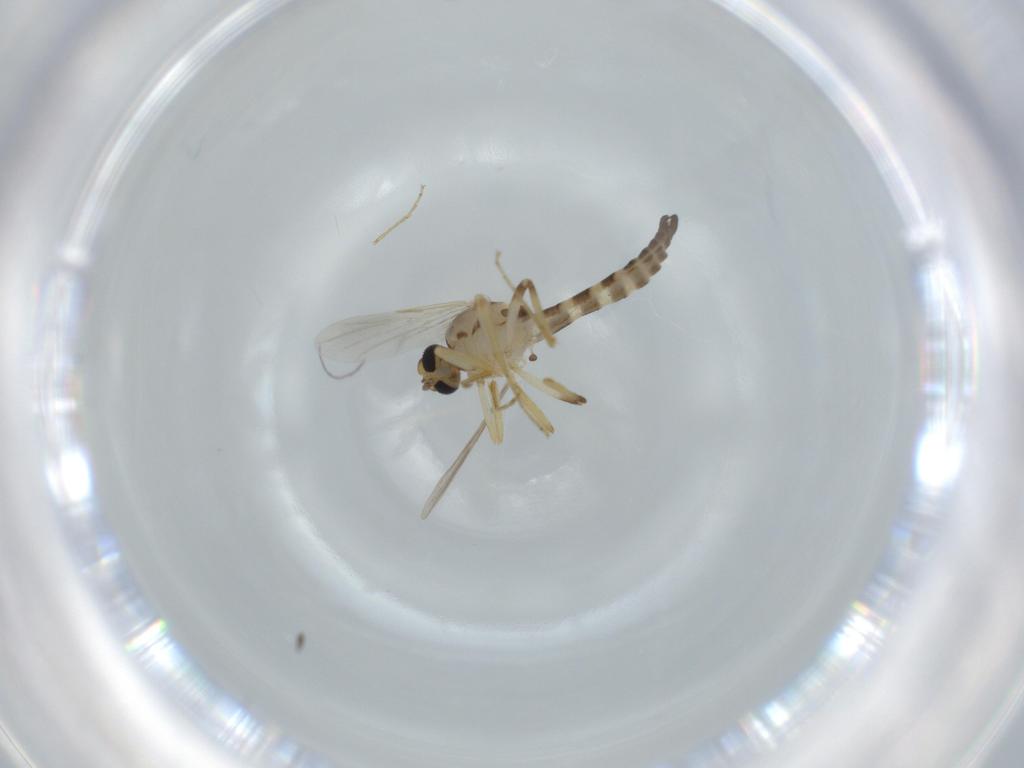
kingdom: Animalia
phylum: Arthropoda
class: Insecta
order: Diptera
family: Ceratopogonidae
